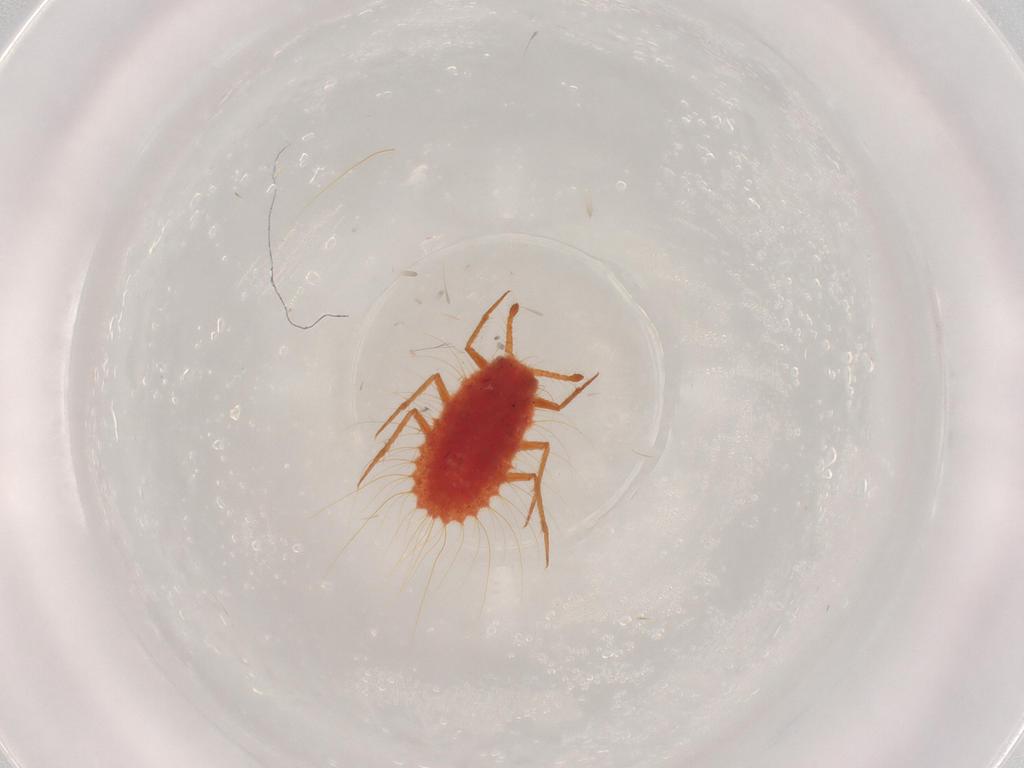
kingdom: Animalia
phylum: Arthropoda
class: Insecta
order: Hemiptera
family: Monophlebidae
